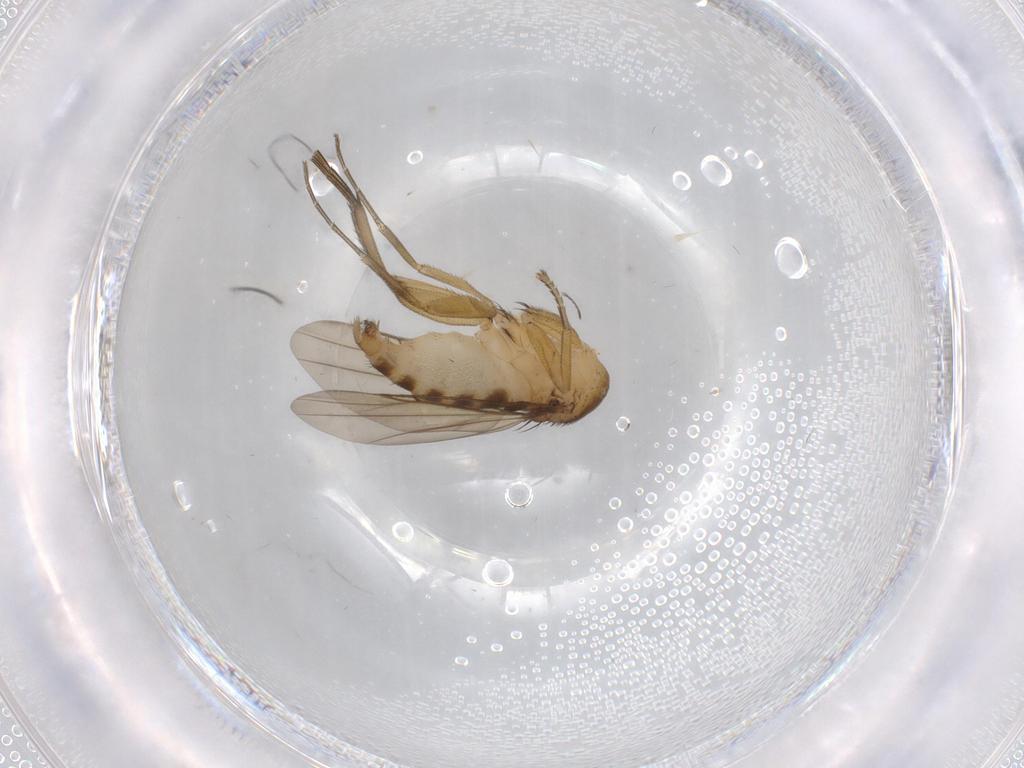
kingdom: Animalia
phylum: Arthropoda
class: Insecta
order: Diptera
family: Phoridae
